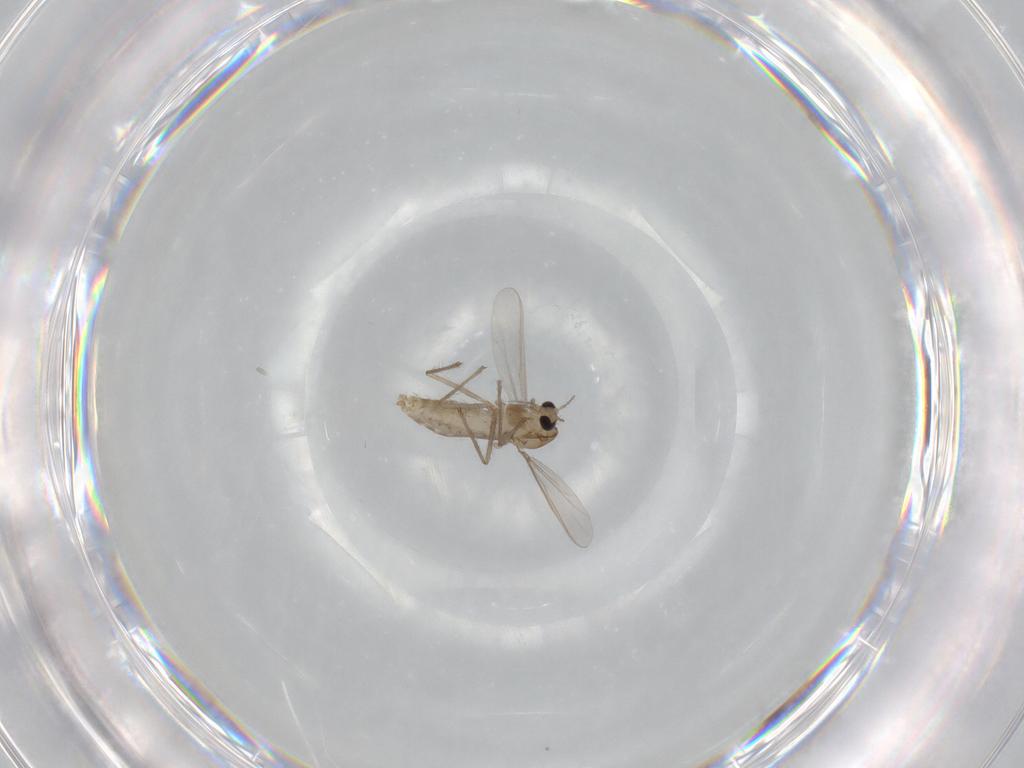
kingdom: Animalia
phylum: Arthropoda
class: Insecta
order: Diptera
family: Chironomidae
